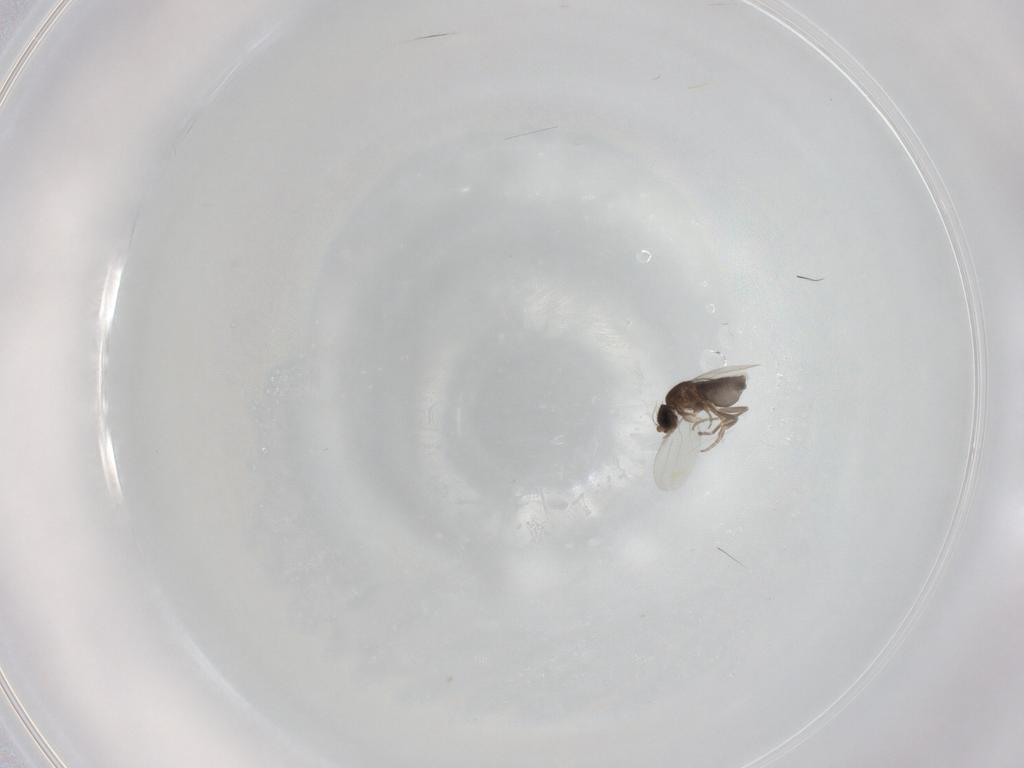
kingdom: Animalia
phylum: Arthropoda
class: Insecta
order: Diptera
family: Phoridae
